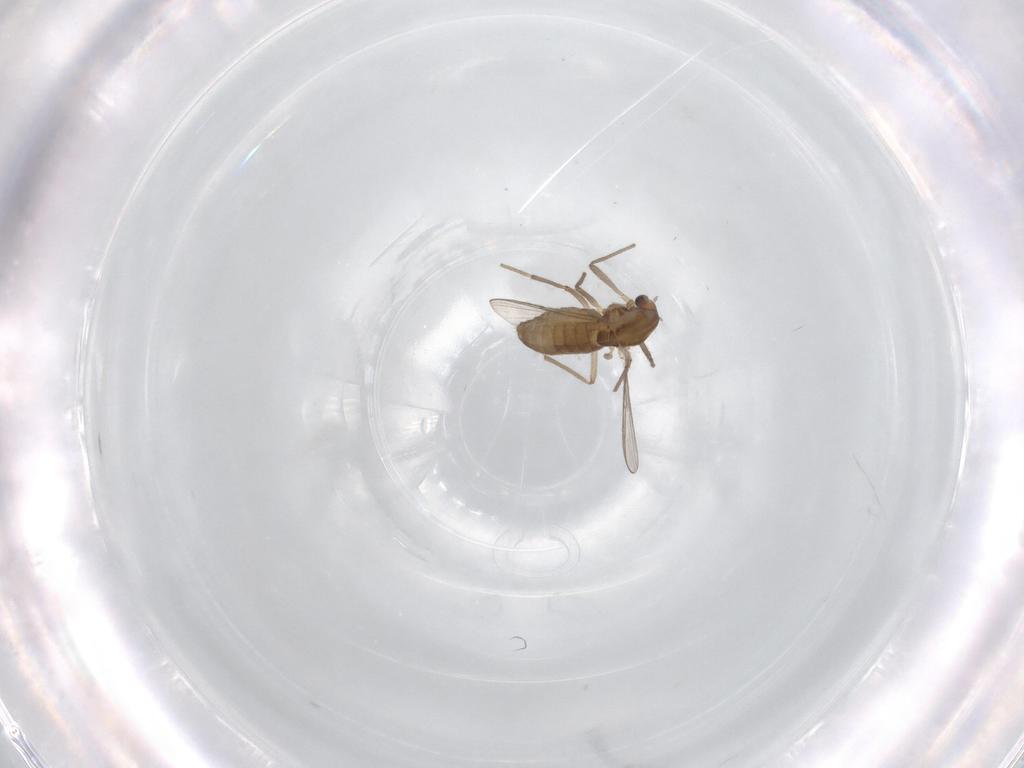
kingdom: Animalia
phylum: Arthropoda
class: Insecta
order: Diptera
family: Chironomidae
